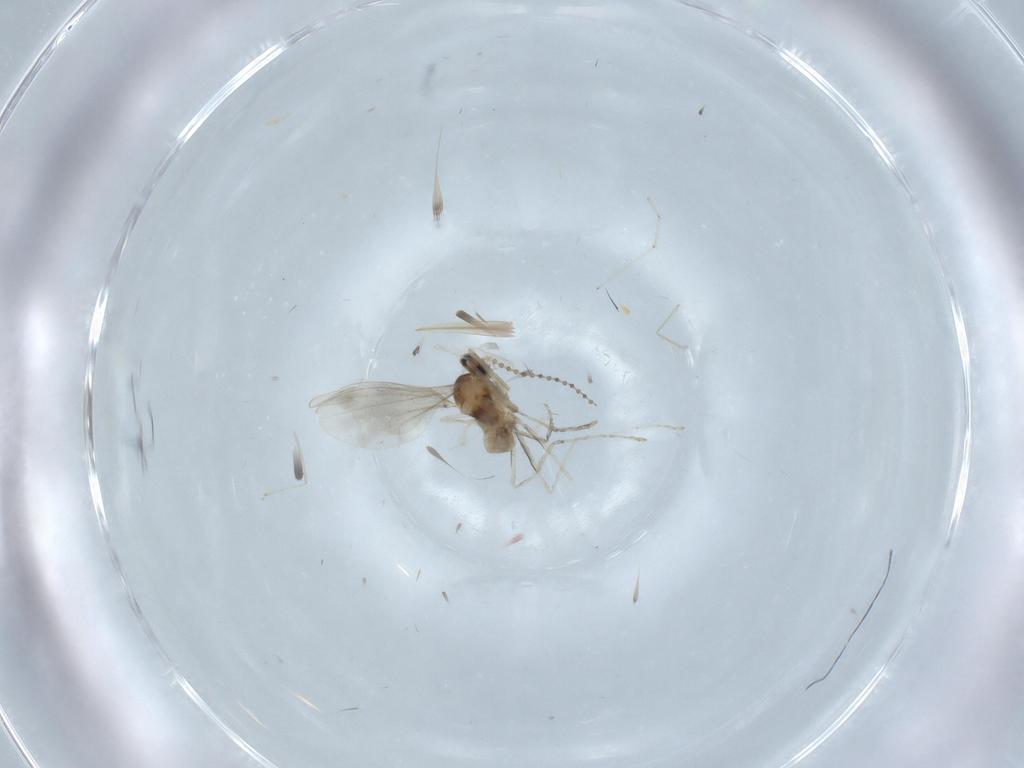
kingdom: Animalia
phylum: Arthropoda
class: Insecta
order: Diptera
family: Cecidomyiidae
